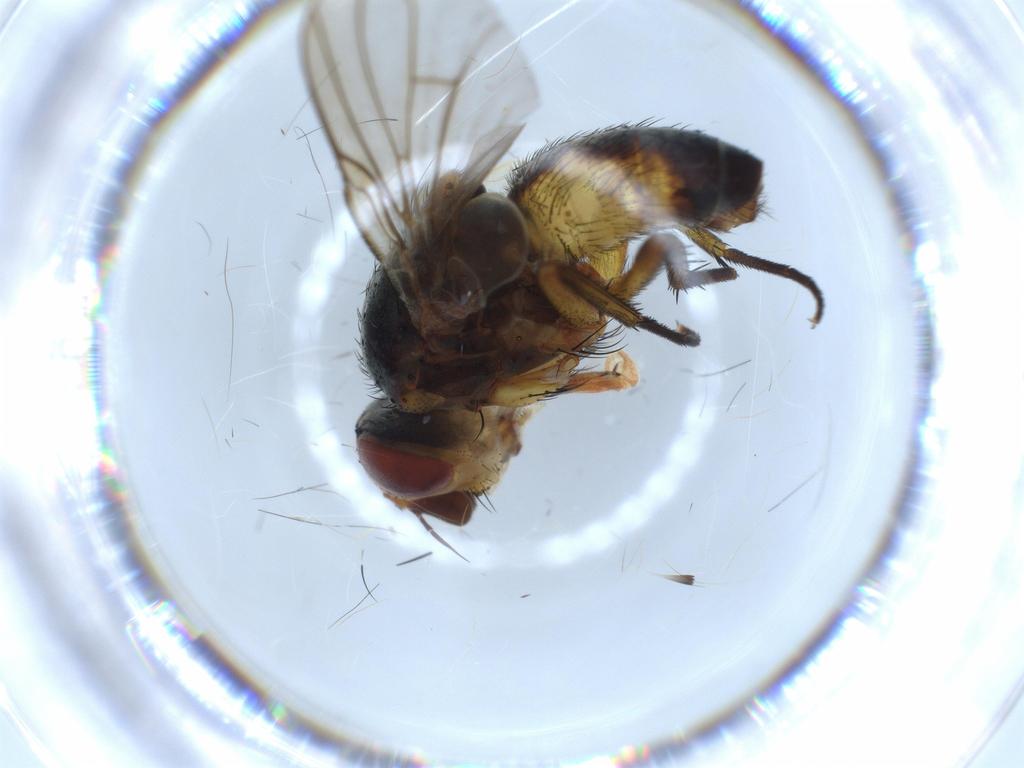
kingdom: Animalia
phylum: Arthropoda
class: Insecta
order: Diptera
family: Tachinidae
